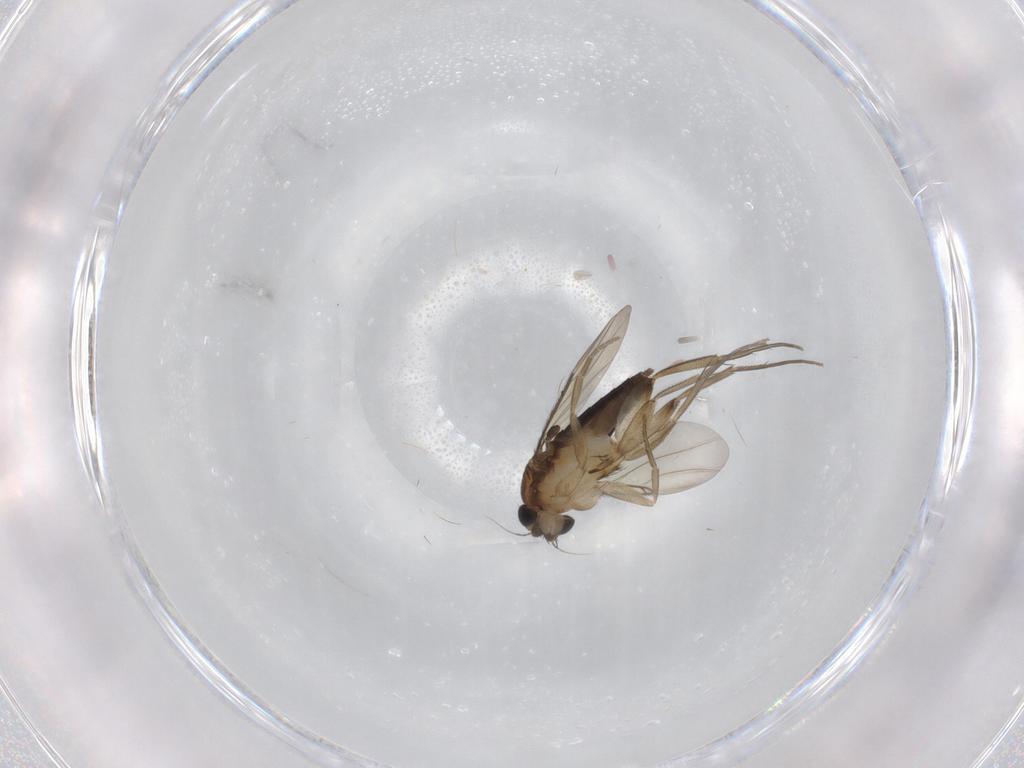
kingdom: Animalia
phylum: Arthropoda
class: Insecta
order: Diptera
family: Phoridae
